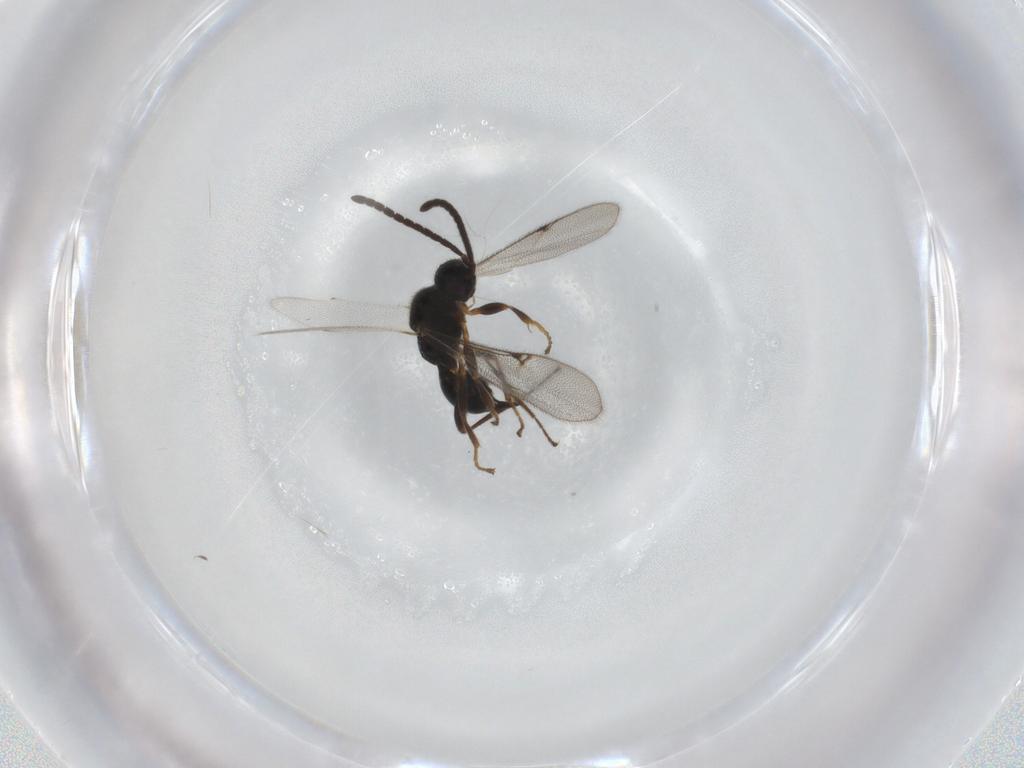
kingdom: Animalia
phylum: Arthropoda
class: Insecta
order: Hymenoptera
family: Proctotrupidae
